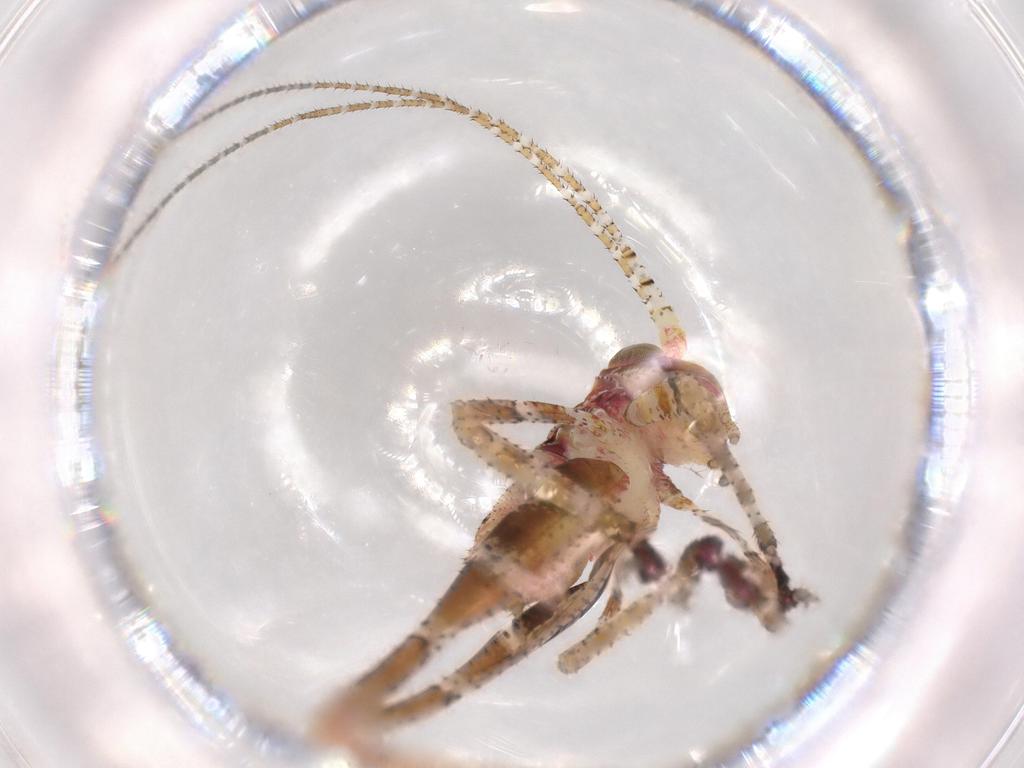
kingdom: Animalia
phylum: Arthropoda
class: Insecta
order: Orthoptera
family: Tettigoniidae
